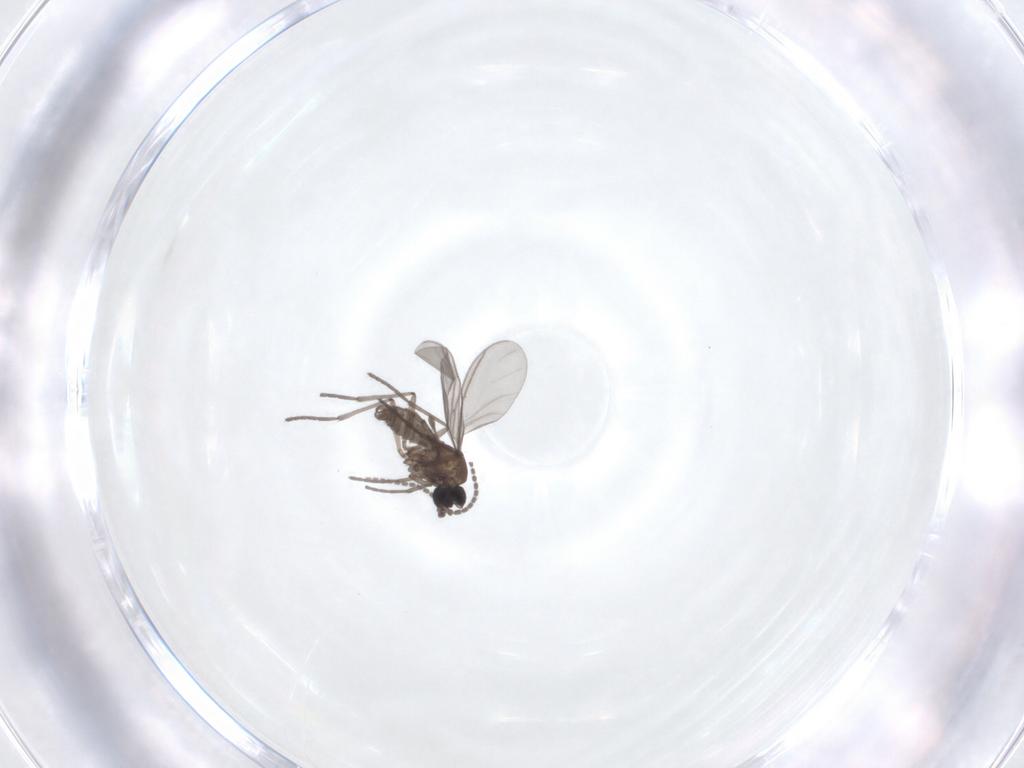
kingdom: Animalia
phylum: Arthropoda
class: Insecta
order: Diptera
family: Sciaridae
